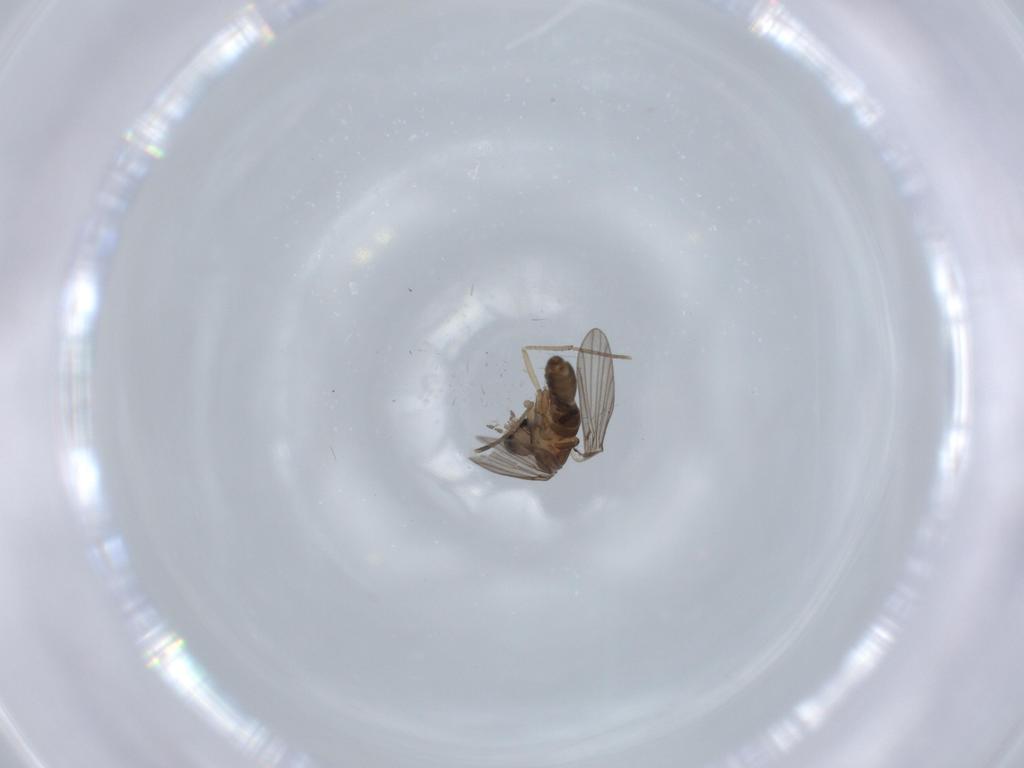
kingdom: Animalia
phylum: Arthropoda
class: Insecta
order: Diptera
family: Psychodidae
